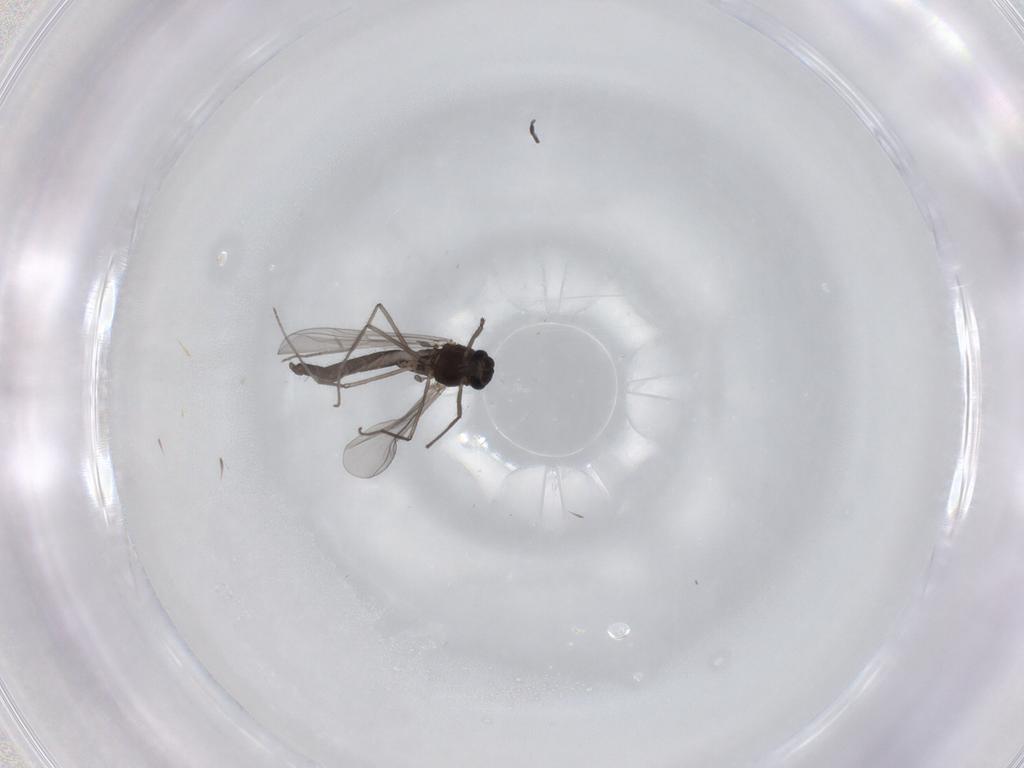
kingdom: Animalia
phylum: Arthropoda
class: Insecta
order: Diptera
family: Chironomidae
